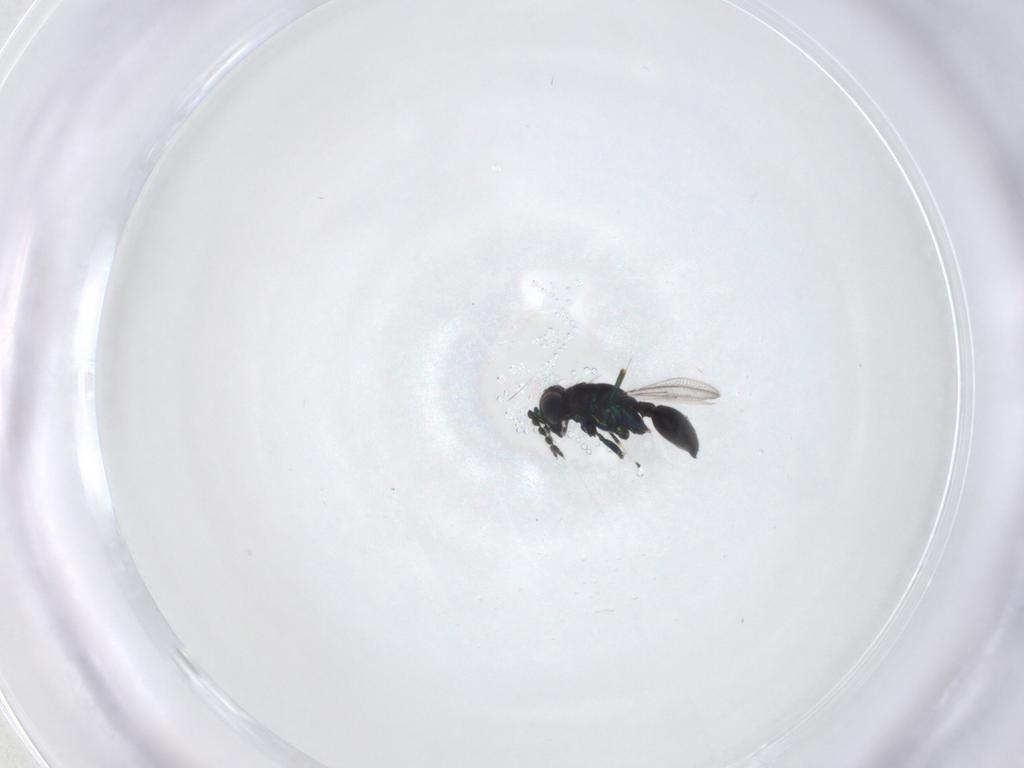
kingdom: Animalia
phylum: Arthropoda
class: Insecta
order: Hymenoptera
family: Eulophidae
